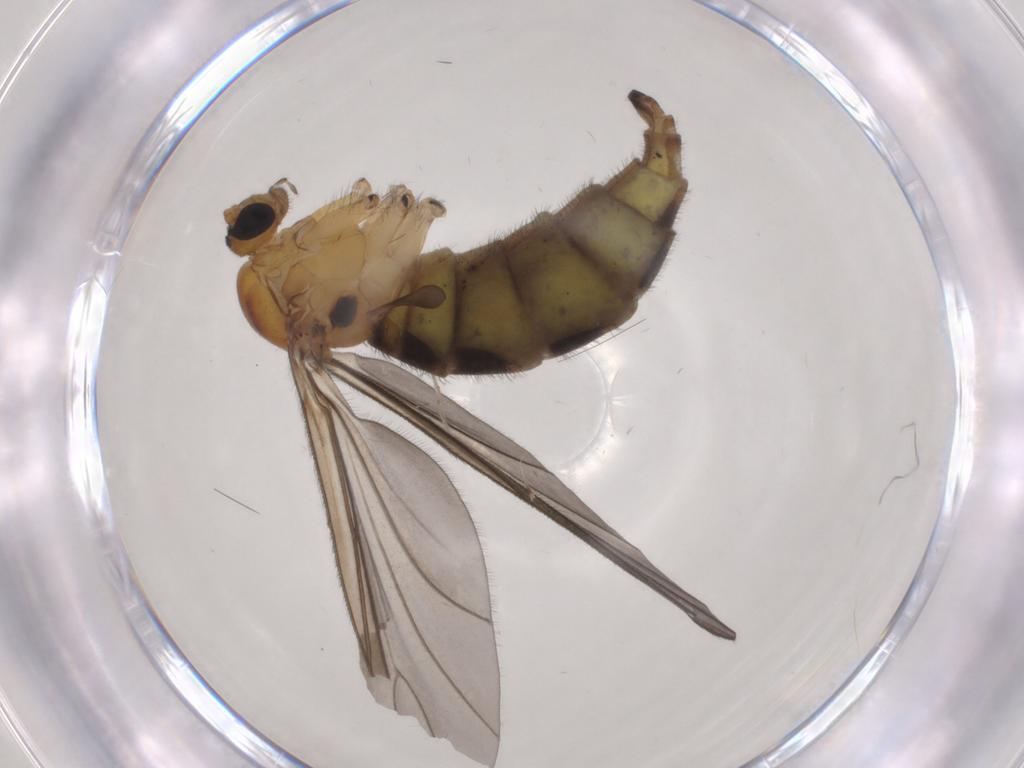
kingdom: Animalia
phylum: Arthropoda
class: Insecta
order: Diptera
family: Sciaridae
